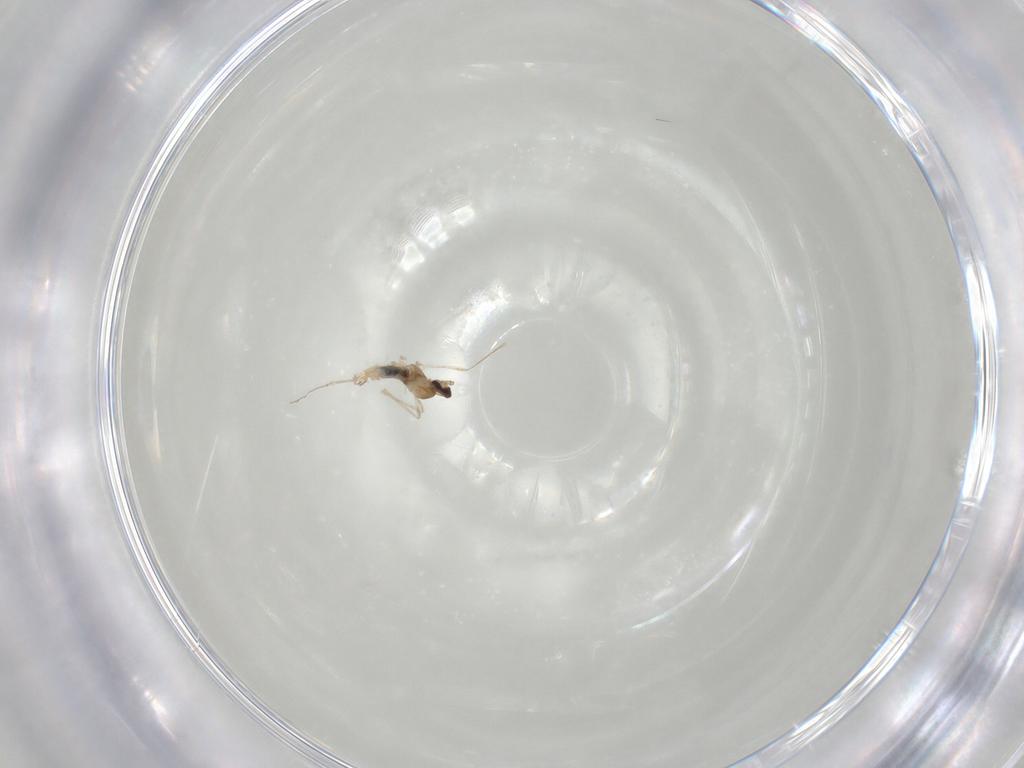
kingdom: Animalia
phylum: Arthropoda
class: Insecta
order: Diptera
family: Cecidomyiidae
